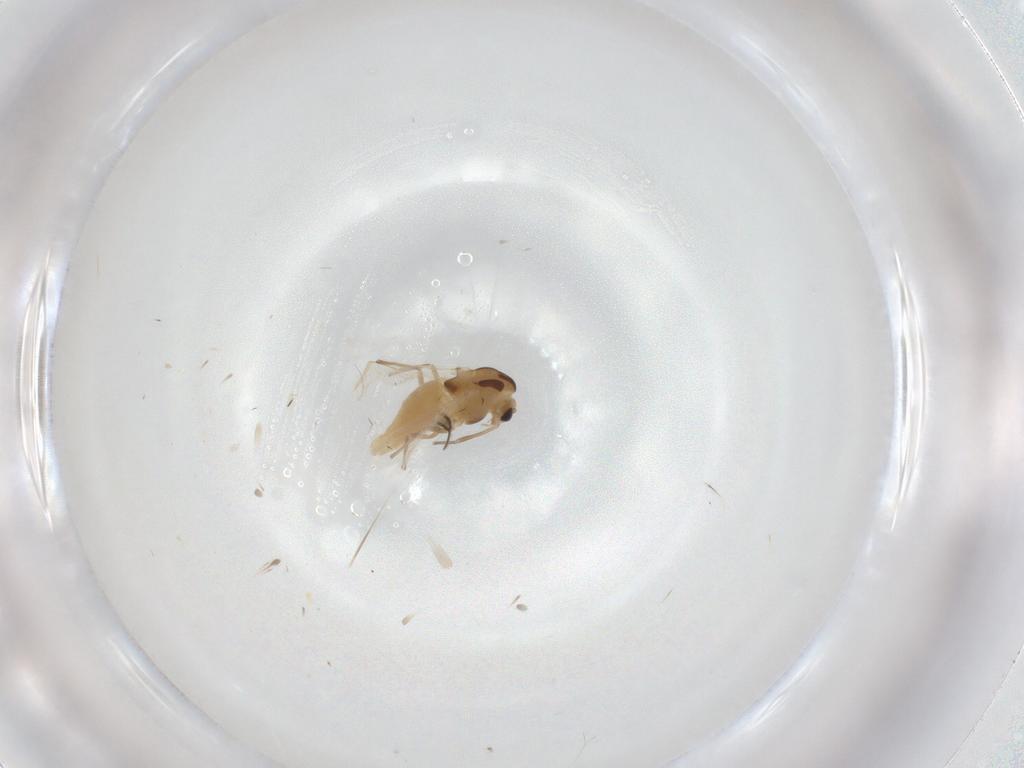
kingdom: Animalia
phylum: Arthropoda
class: Insecta
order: Diptera
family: Chironomidae
